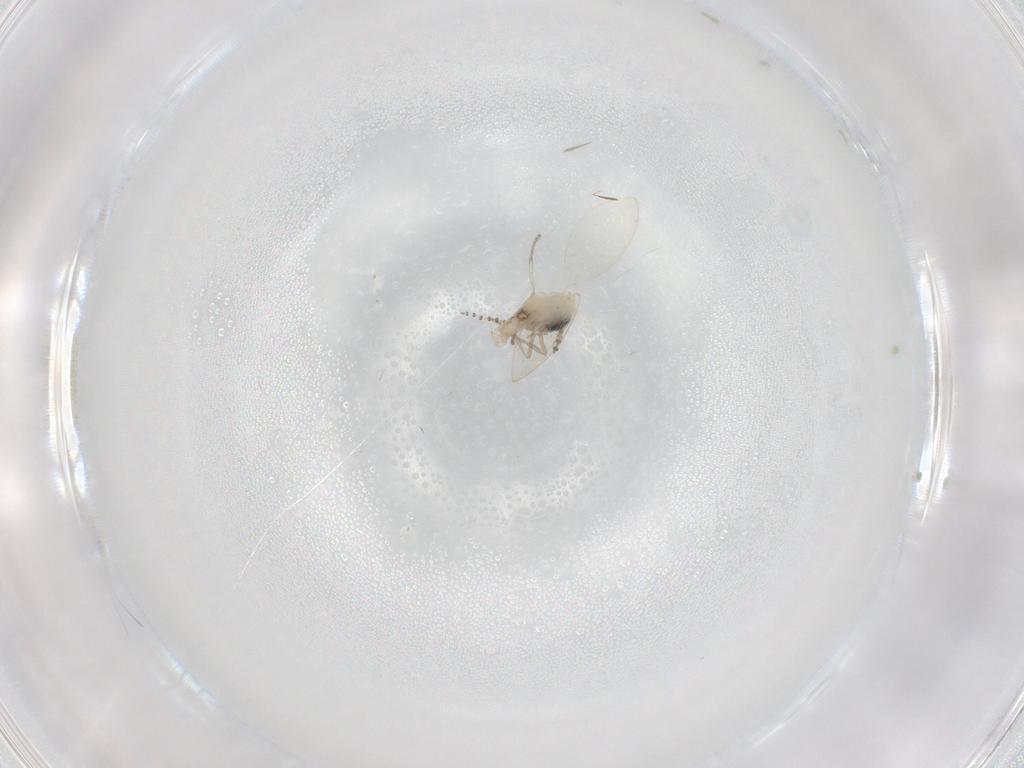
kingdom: Animalia
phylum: Arthropoda
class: Insecta
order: Diptera
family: Psychodidae
